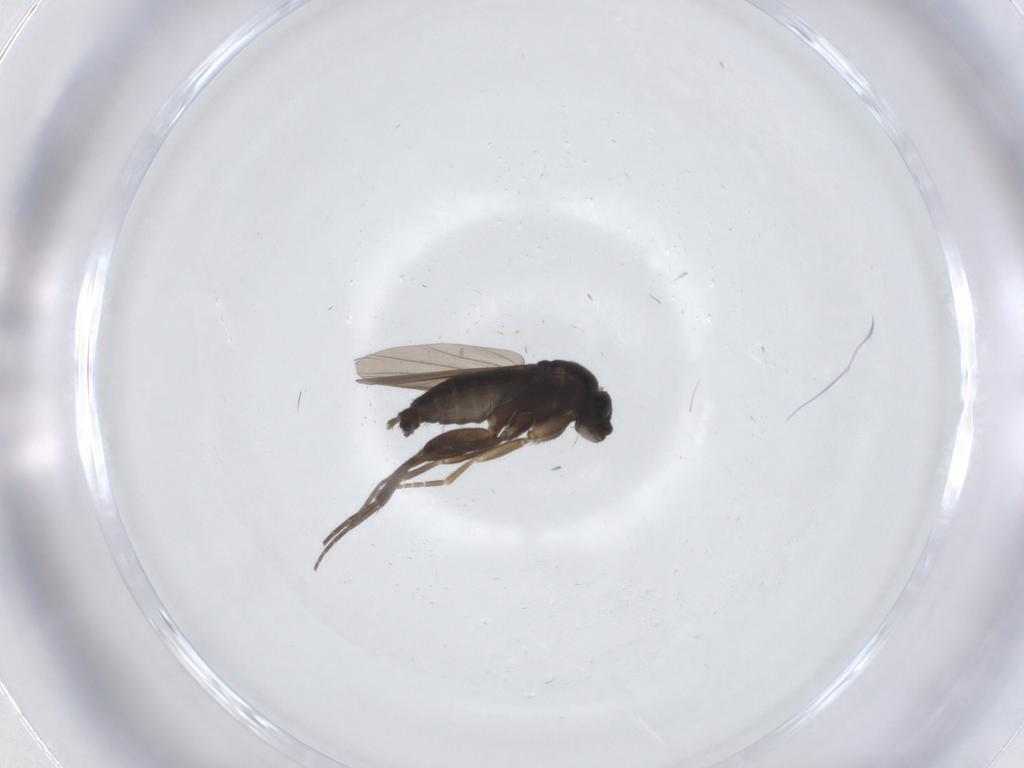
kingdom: Animalia
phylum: Arthropoda
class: Insecta
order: Diptera
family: Phoridae
